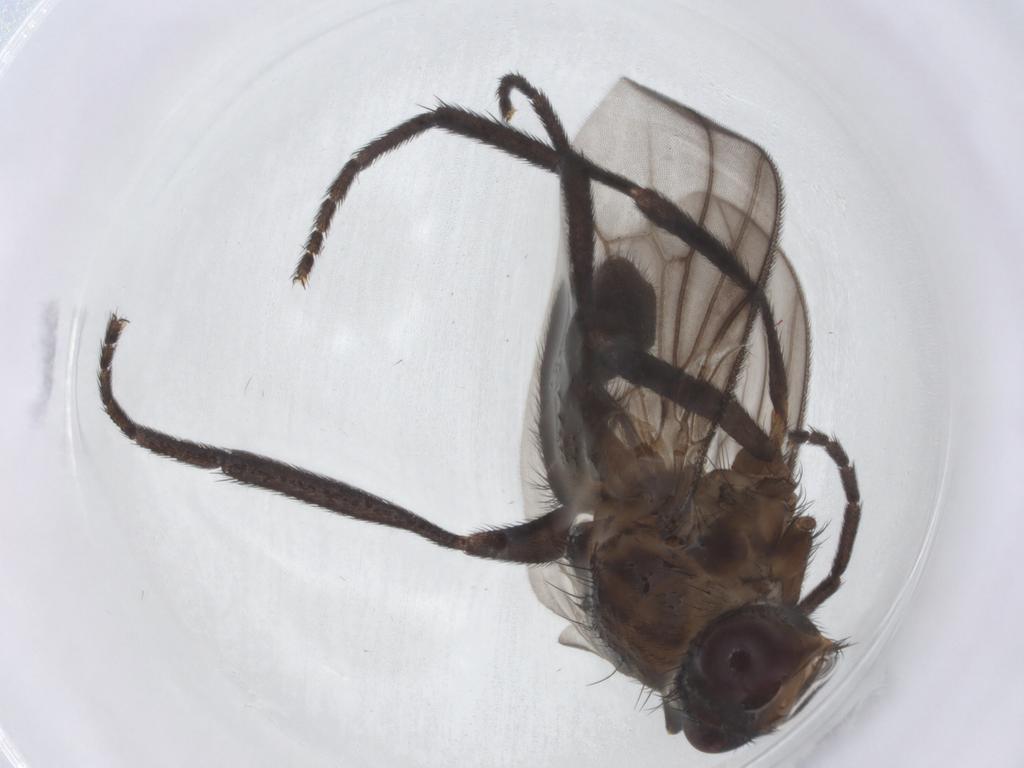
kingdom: Animalia
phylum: Arthropoda
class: Insecta
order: Diptera
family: Calliphoridae
